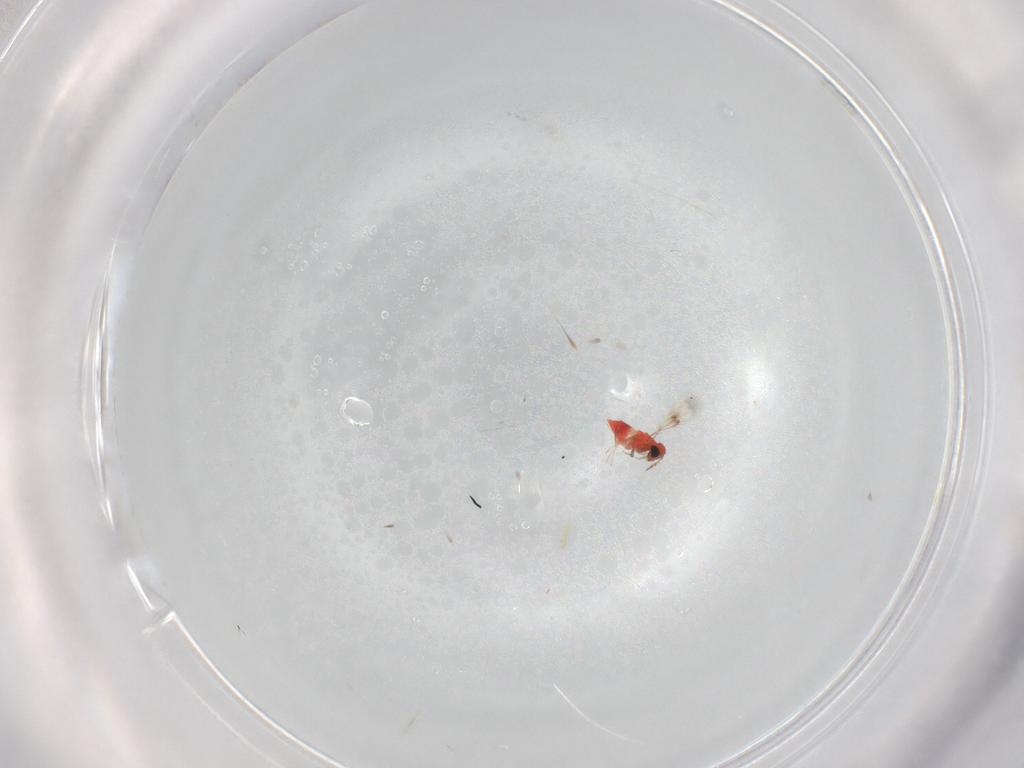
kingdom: Animalia
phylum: Arthropoda
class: Insecta
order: Hymenoptera
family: Trichogrammatidae
